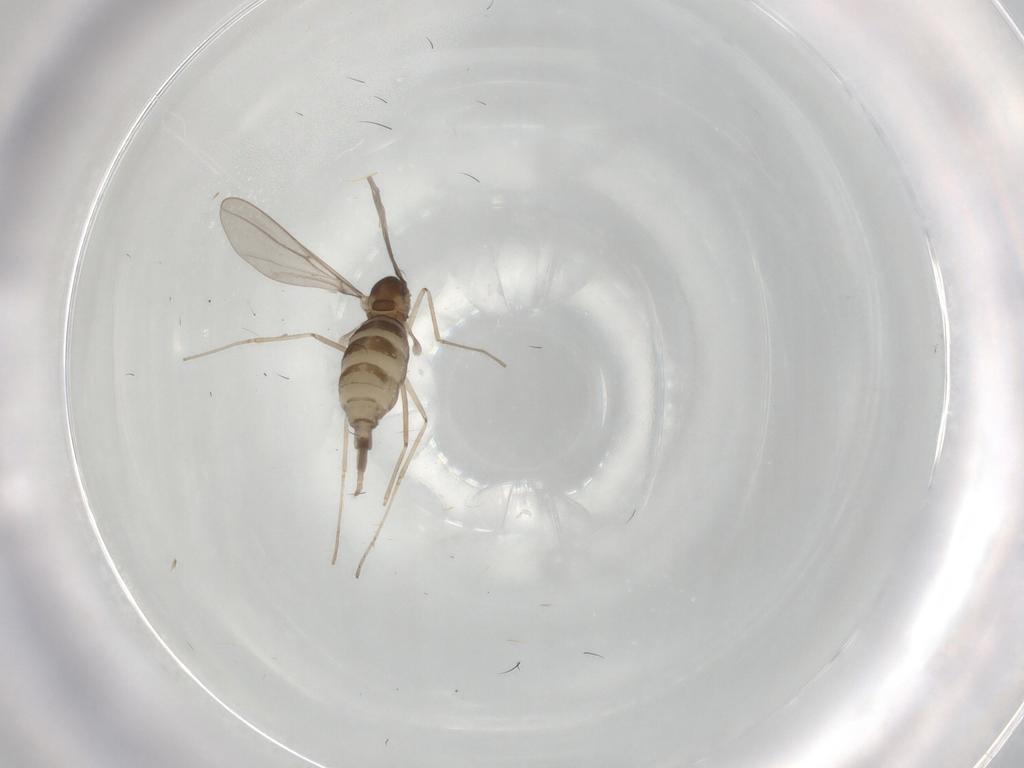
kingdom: Animalia
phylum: Arthropoda
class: Insecta
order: Diptera
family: Cecidomyiidae
